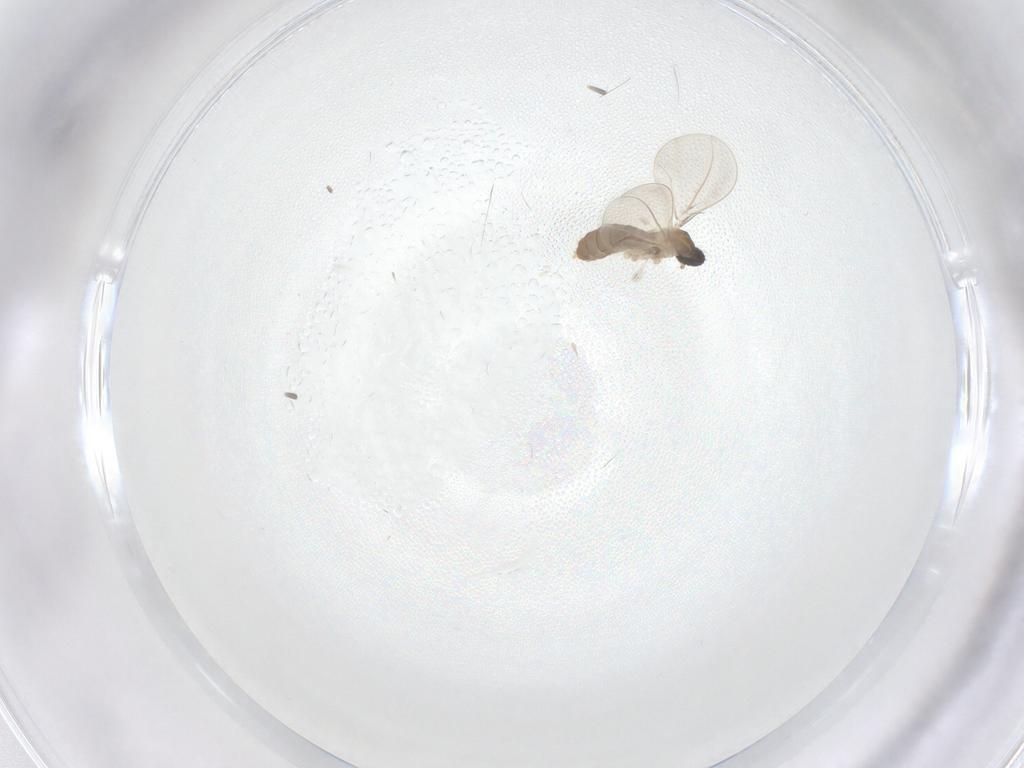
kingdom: Animalia
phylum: Arthropoda
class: Insecta
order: Diptera
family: Cecidomyiidae
